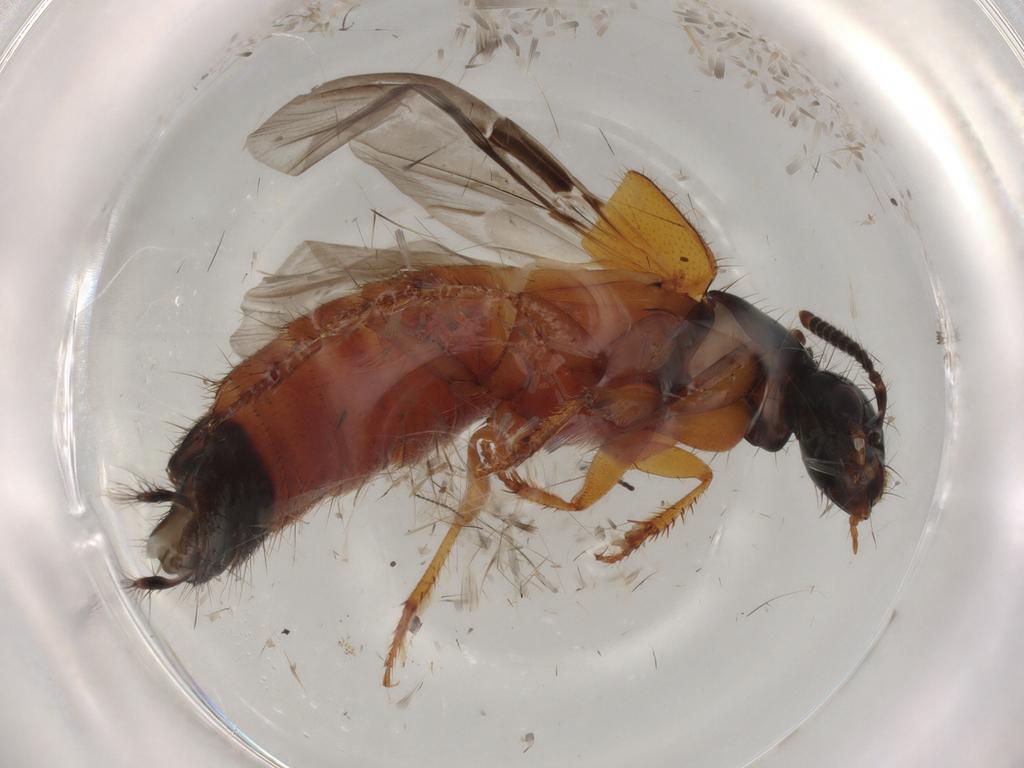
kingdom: Animalia
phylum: Arthropoda
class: Insecta
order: Coleoptera
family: Staphylinidae
